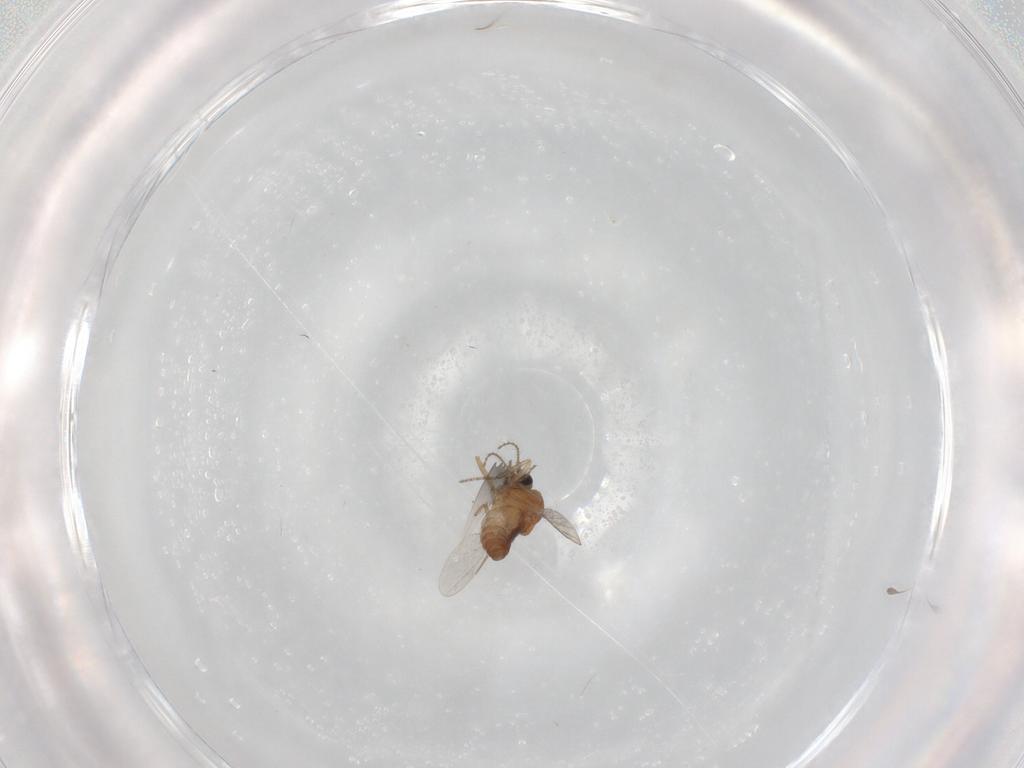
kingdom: Animalia
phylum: Arthropoda
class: Insecta
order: Diptera
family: Ceratopogonidae
